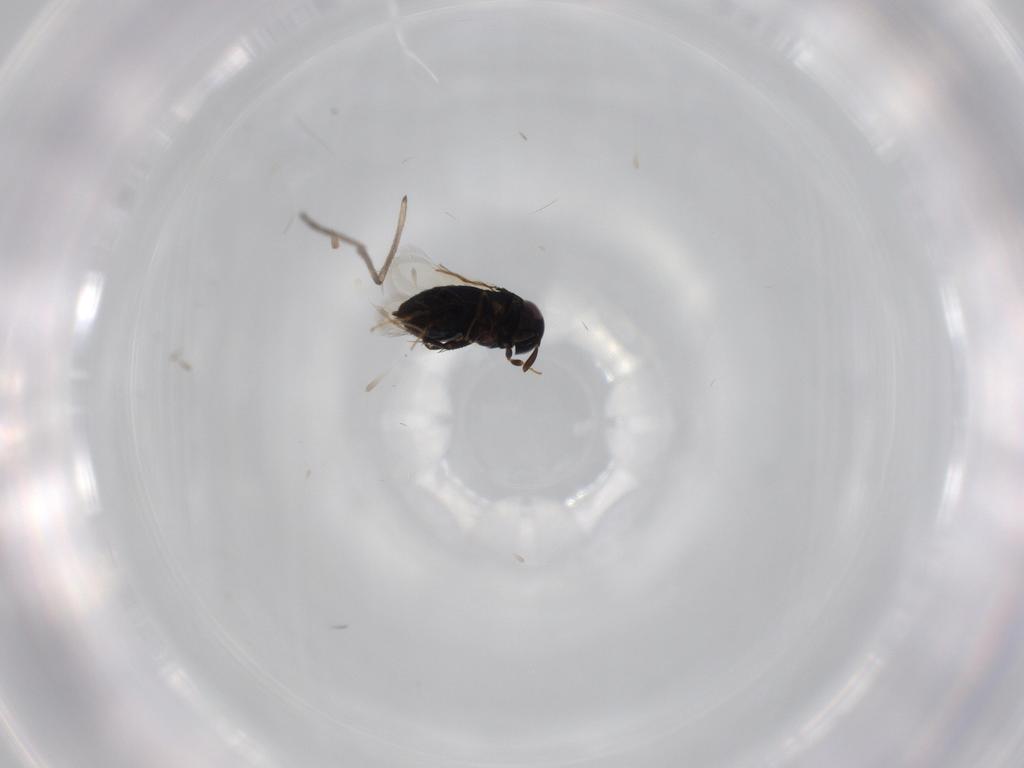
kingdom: Animalia
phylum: Arthropoda
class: Insecta
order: Hymenoptera
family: Signiphoridae
